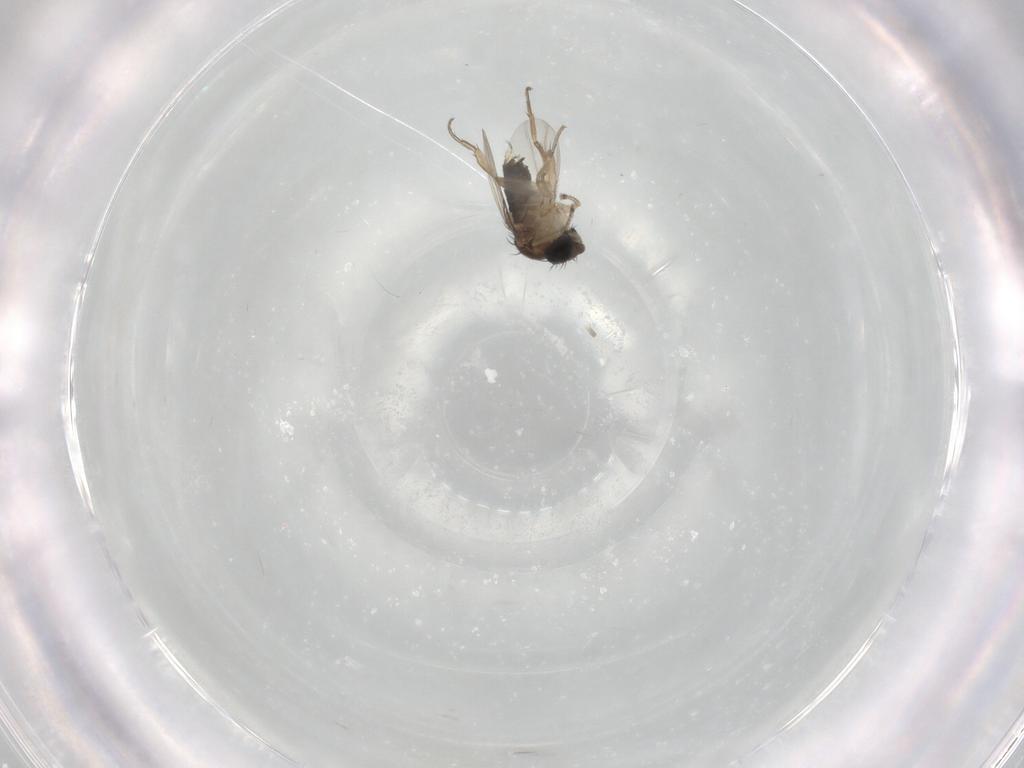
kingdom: Animalia
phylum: Arthropoda
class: Insecta
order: Diptera
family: Phoridae
